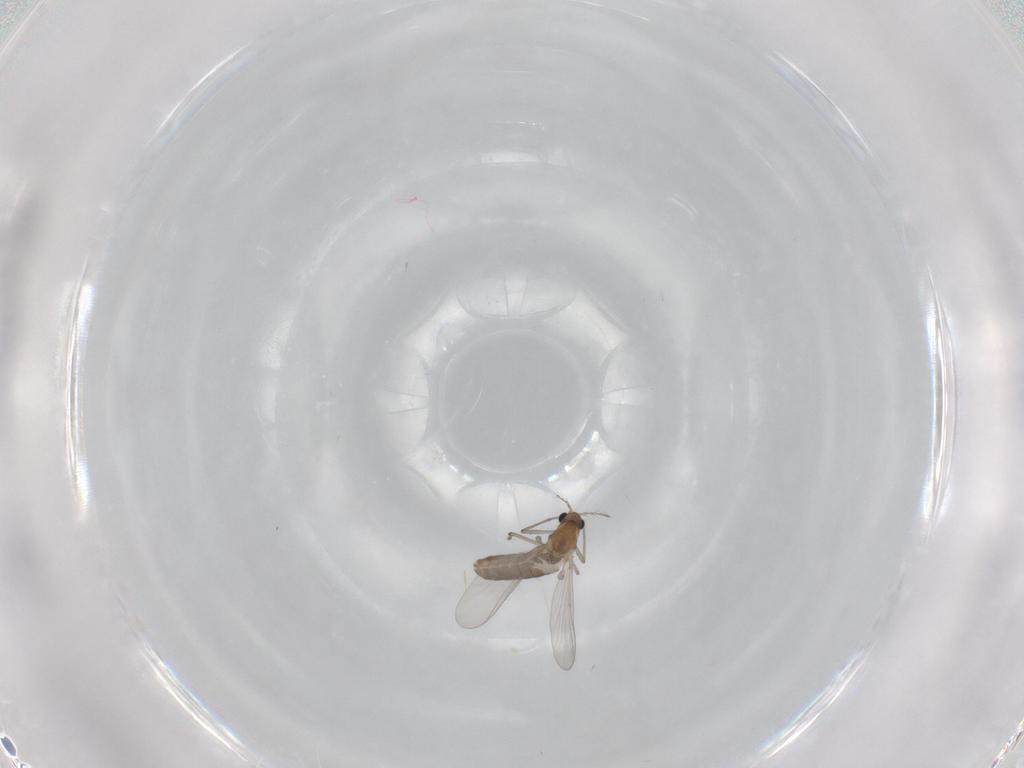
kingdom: Animalia
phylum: Arthropoda
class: Insecta
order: Diptera
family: Chironomidae
